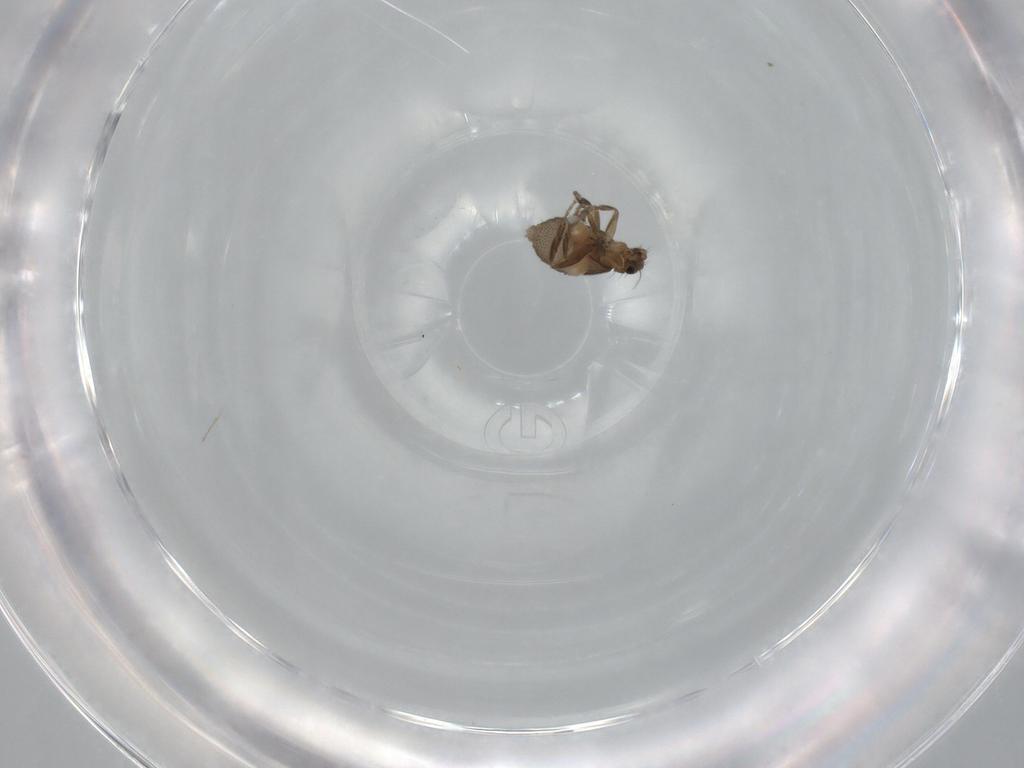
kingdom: Animalia
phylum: Arthropoda
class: Insecta
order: Diptera
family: Phoridae
